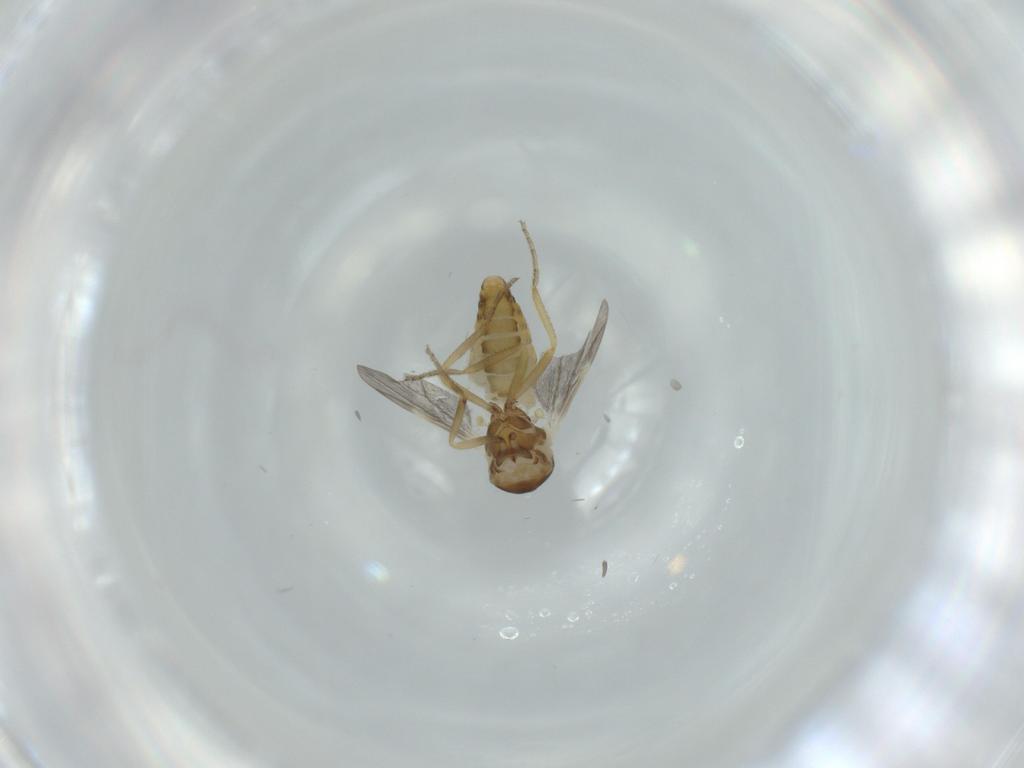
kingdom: Animalia
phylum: Arthropoda
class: Insecta
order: Diptera
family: Ceratopogonidae
